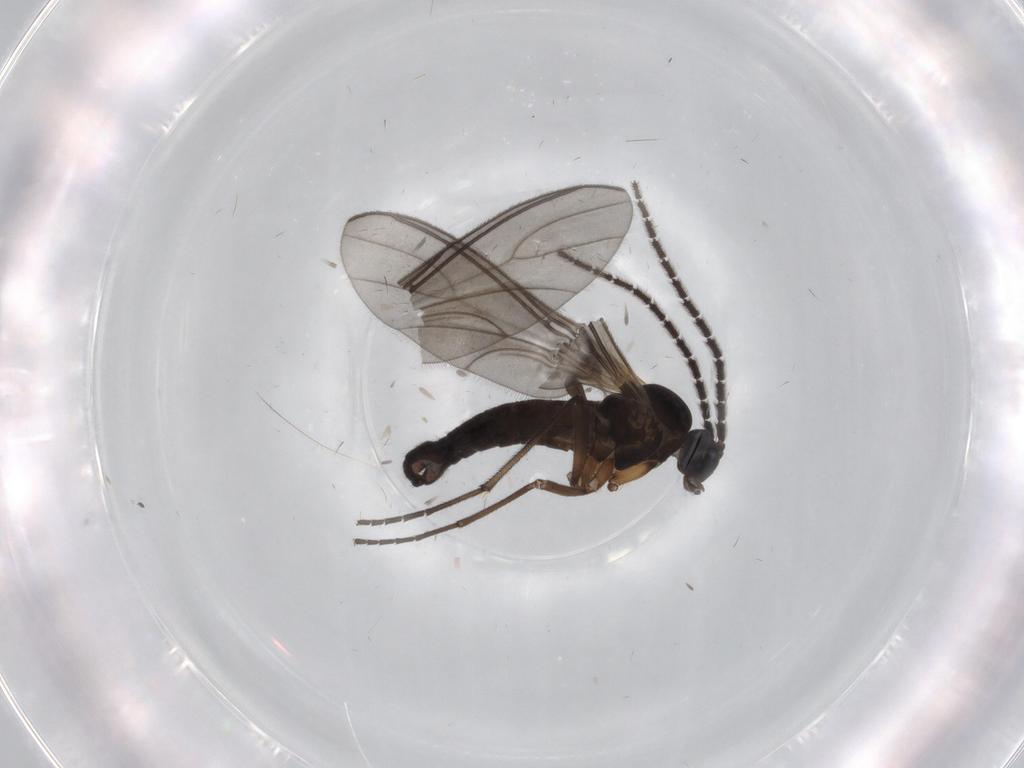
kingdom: Animalia
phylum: Arthropoda
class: Insecta
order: Diptera
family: Sciaridae
